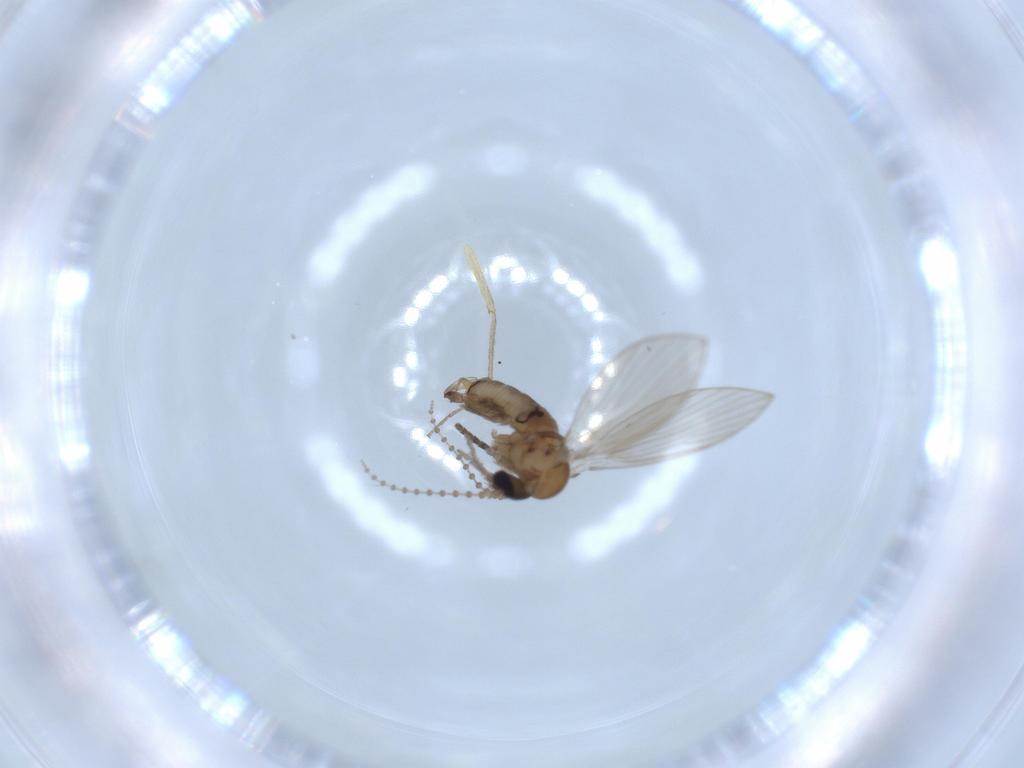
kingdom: Animalia
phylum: Arthropoda
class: Insecta
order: Diptera
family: Psychodidae
